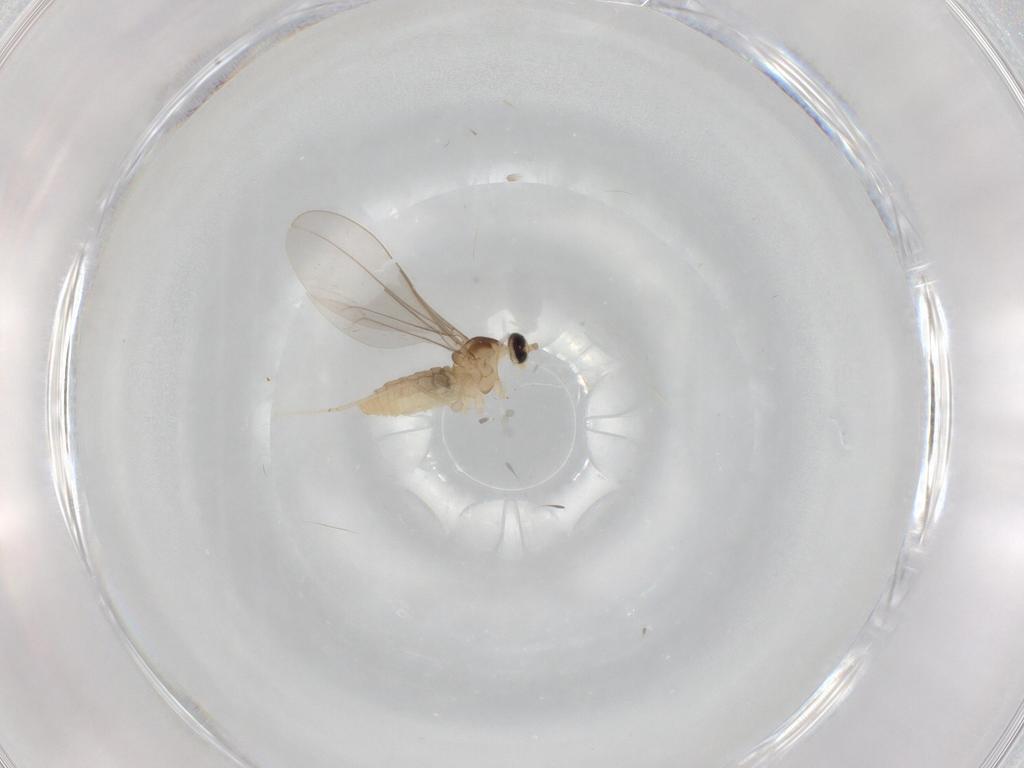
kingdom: Animalia
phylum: Arthropoda
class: Insecta
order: Diptera
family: Cecidomyiidae
